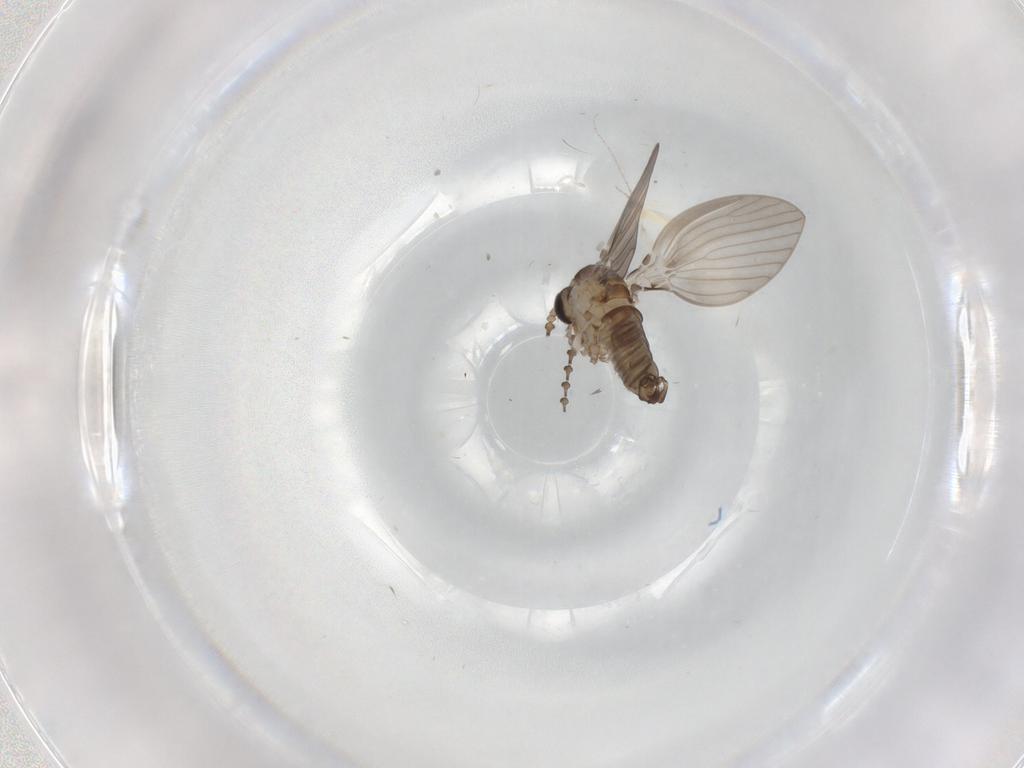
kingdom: Animalia
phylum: Arthropoda
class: Insecta
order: Diptera
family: Psychodidae
